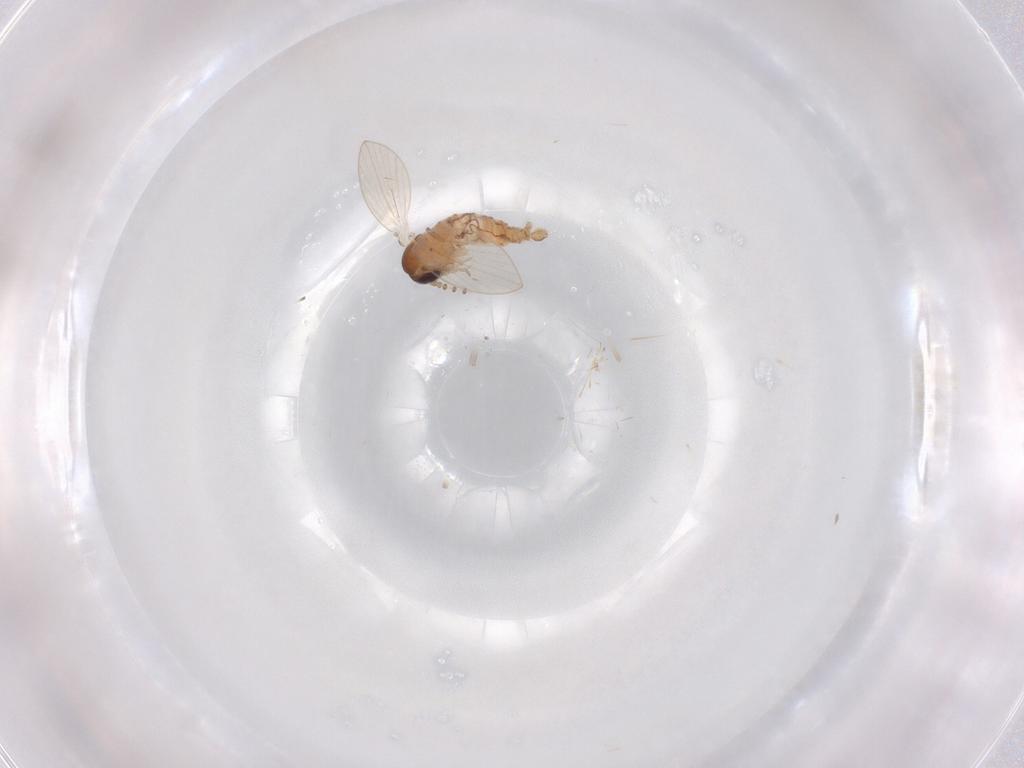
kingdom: Animalia
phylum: Arthropoda
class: Insecta
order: Diptera
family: Psychodidae
